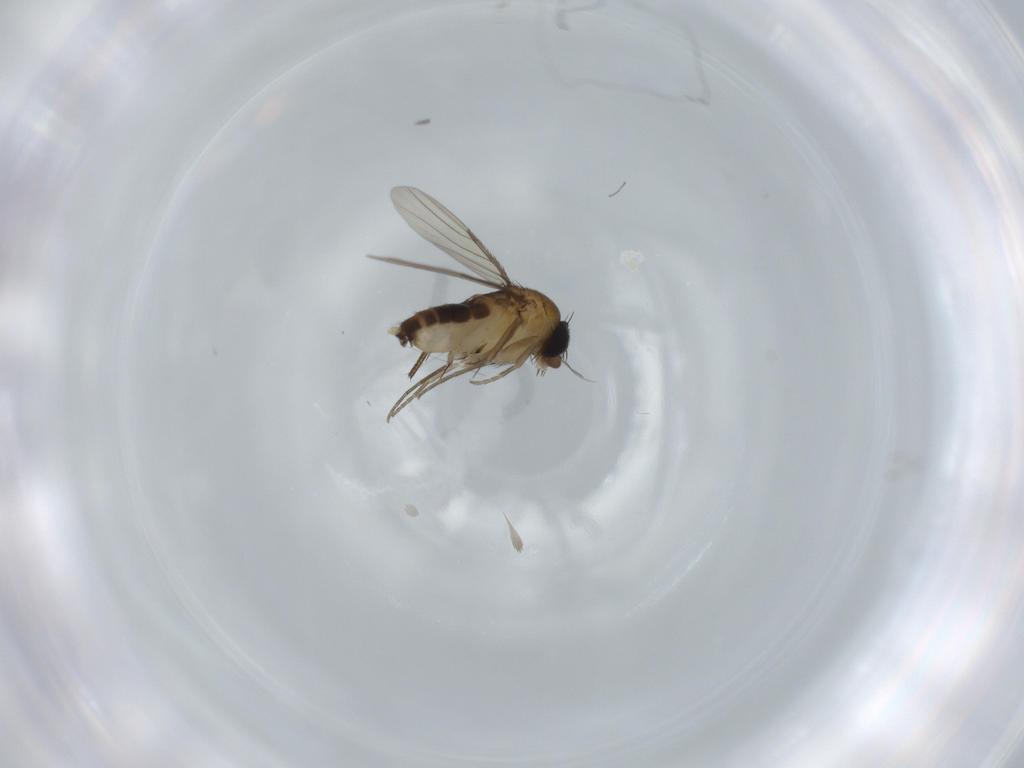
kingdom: Animalia
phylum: Arthropoda
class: Insecta
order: Diptera
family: Phoridae
